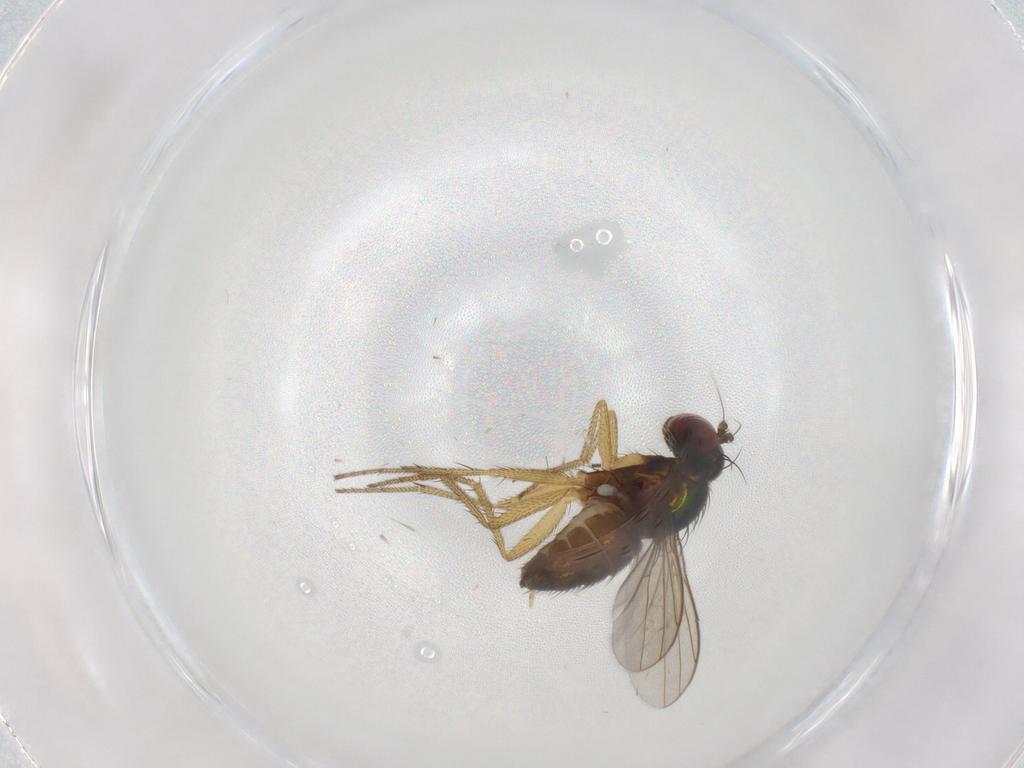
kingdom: Animalia
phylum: Arthropoda
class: Insecta
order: Diptera
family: Dolichopodidae
